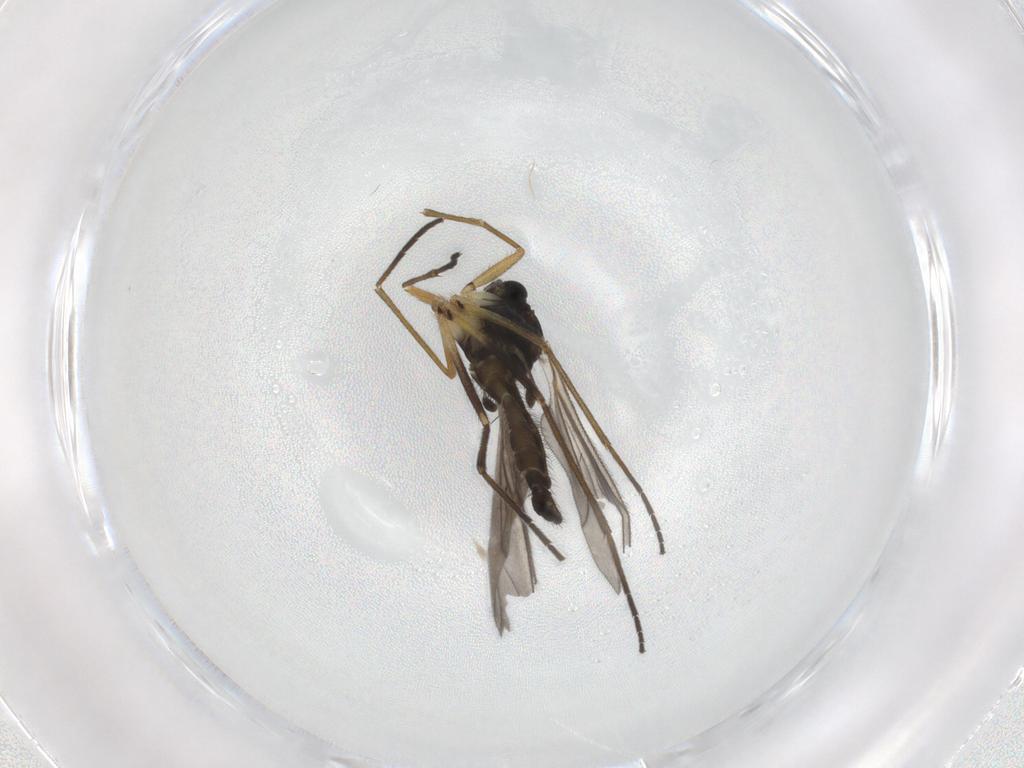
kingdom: Animalia
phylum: Arthropoda
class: Insecta
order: Diptera
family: Sciaridae
